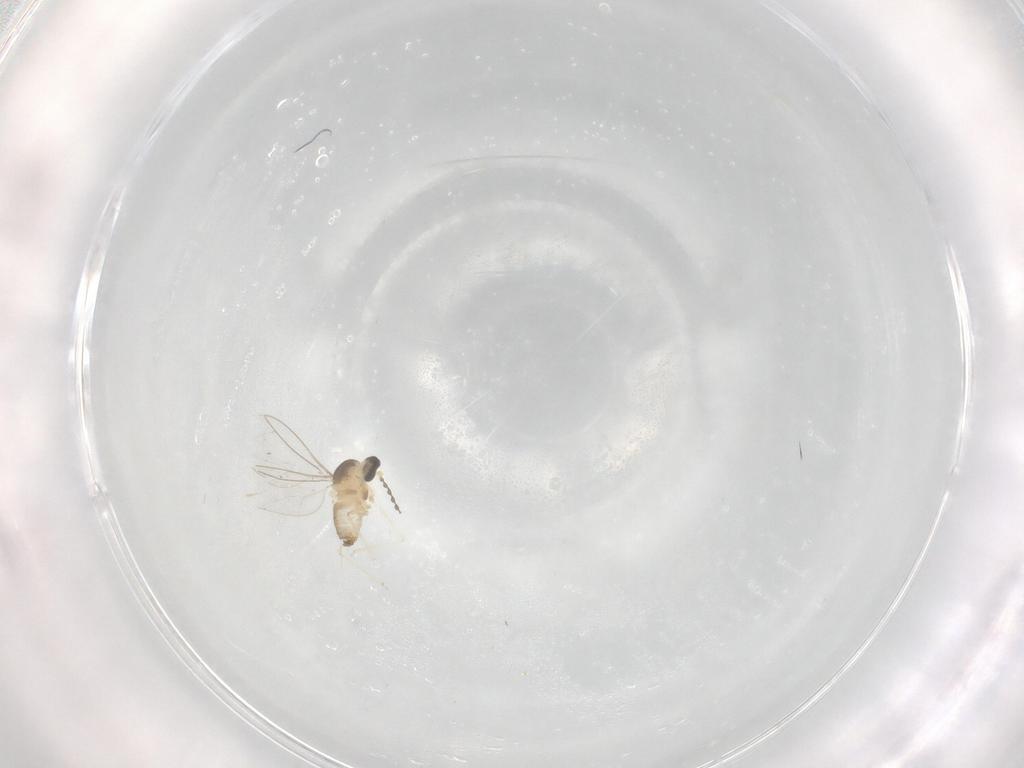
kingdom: Animalia
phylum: Arthropoda
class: Insecta
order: Diptera
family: Cecidomyiidae
